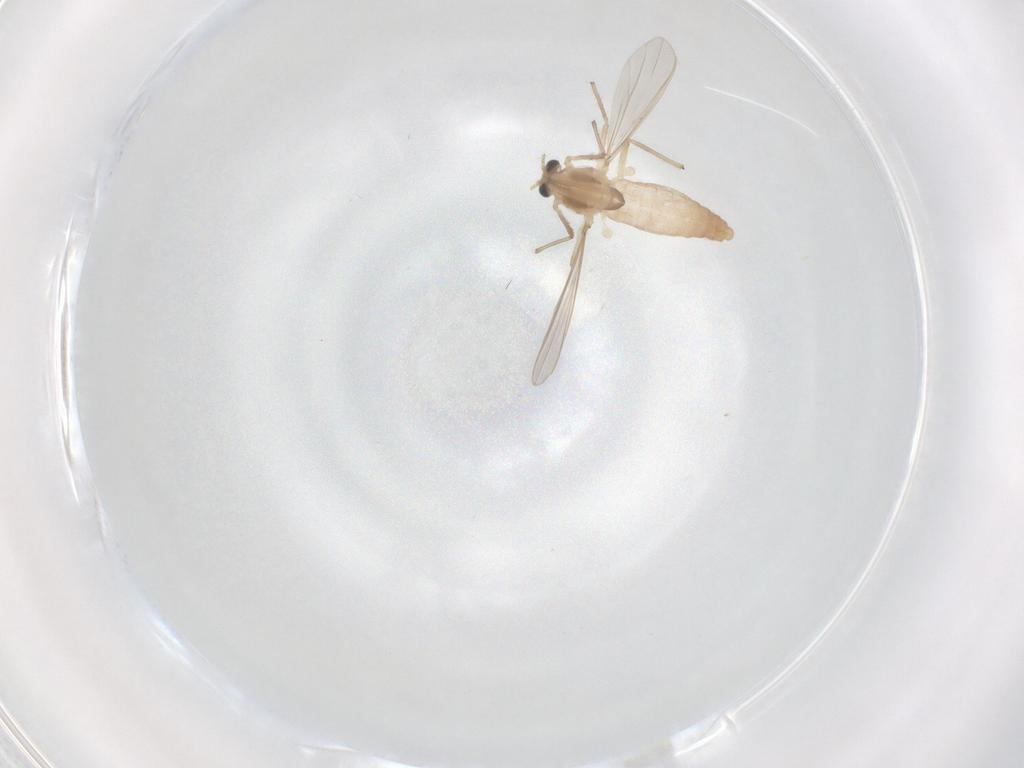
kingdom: Animalia
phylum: Arthropoda
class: Insecta
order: Diptera
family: Chironomidae
